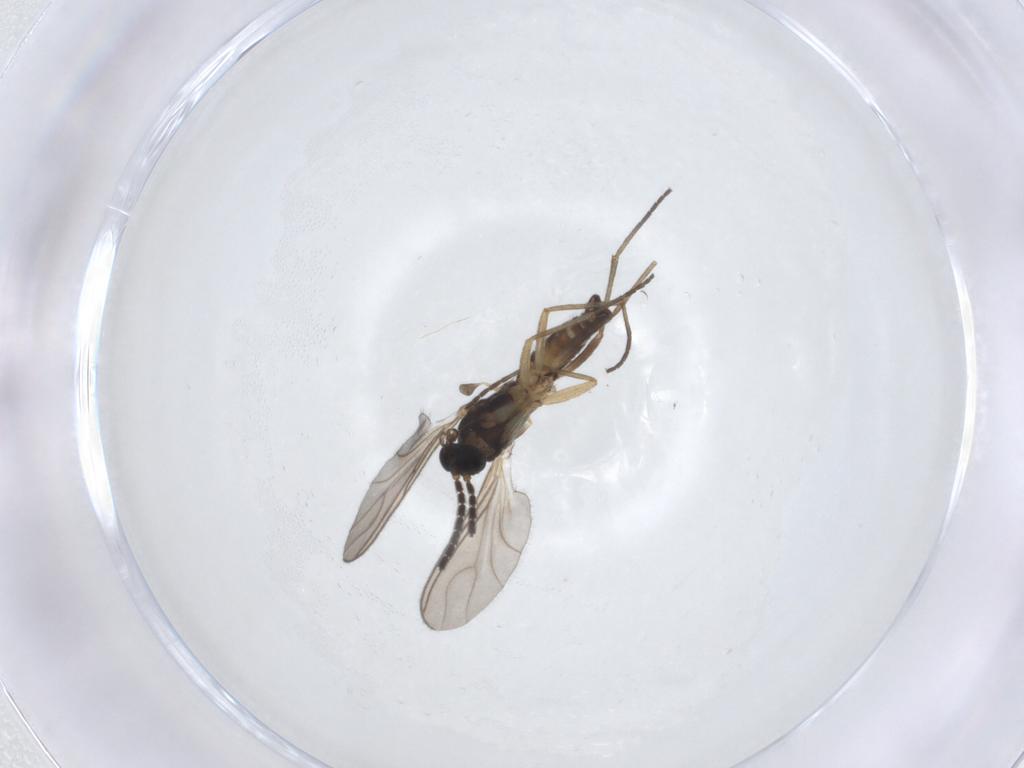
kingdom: Animalia
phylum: Arthropoda
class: Insecta
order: Diptera
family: Sciaridae
